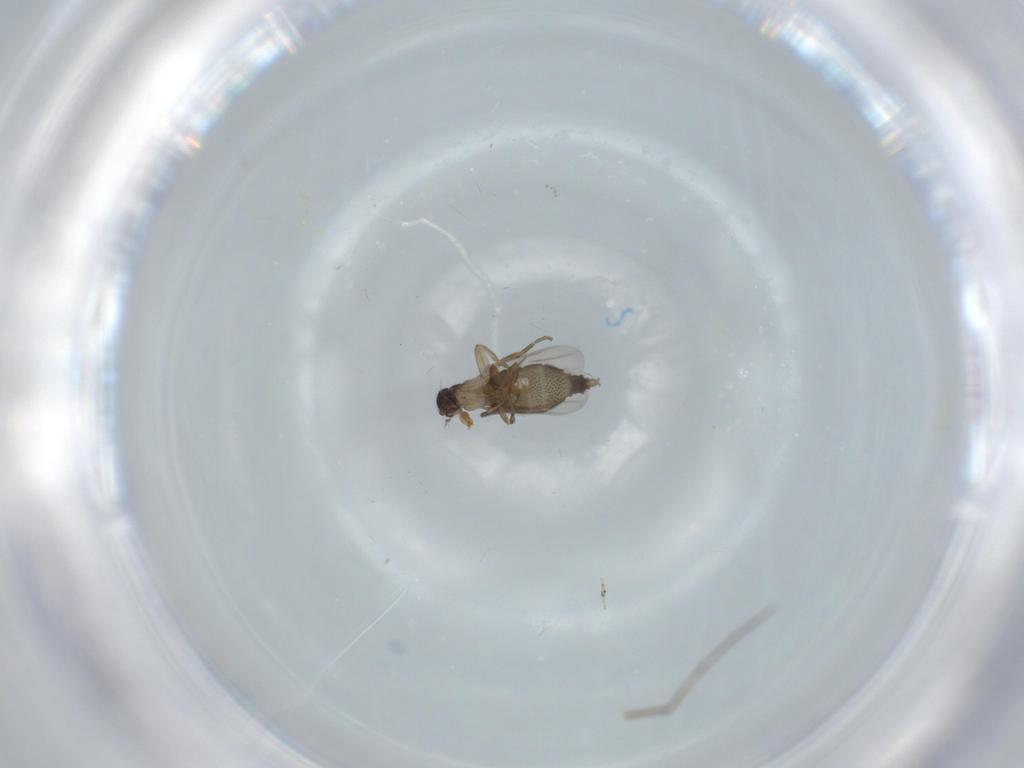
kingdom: Animalia
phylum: Arthropoda
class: Insecta
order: Diptera
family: Phoridae
